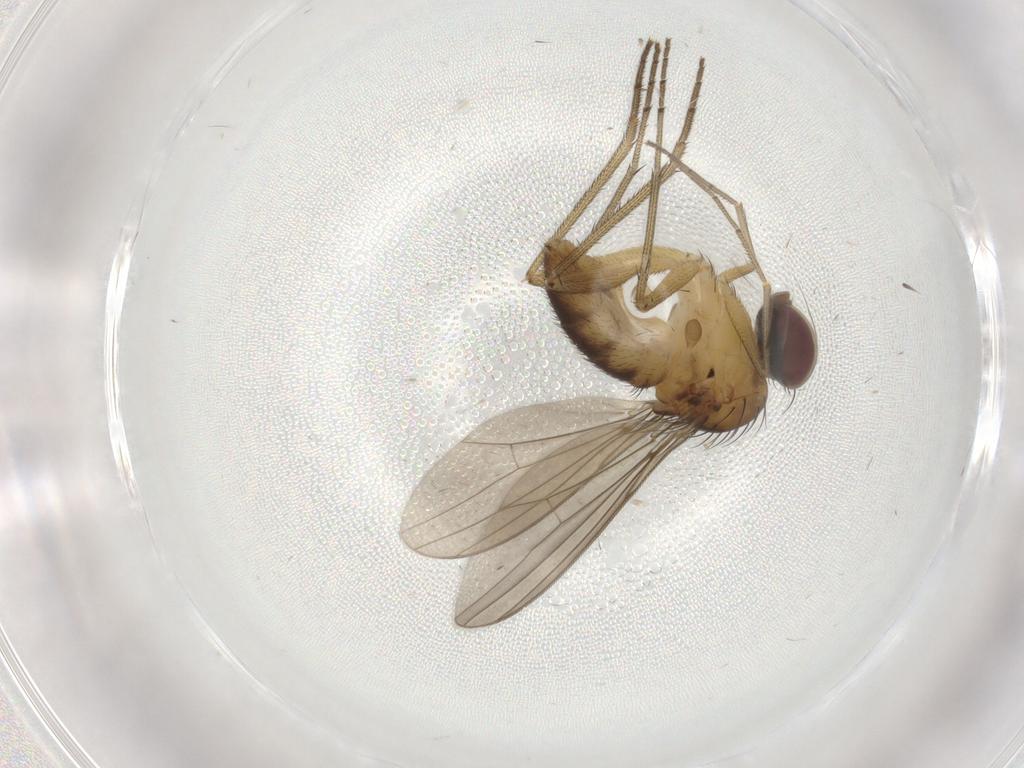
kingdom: Animalia
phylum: Arthropoda
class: Insecta
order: Diptera
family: Dolichopodidae
